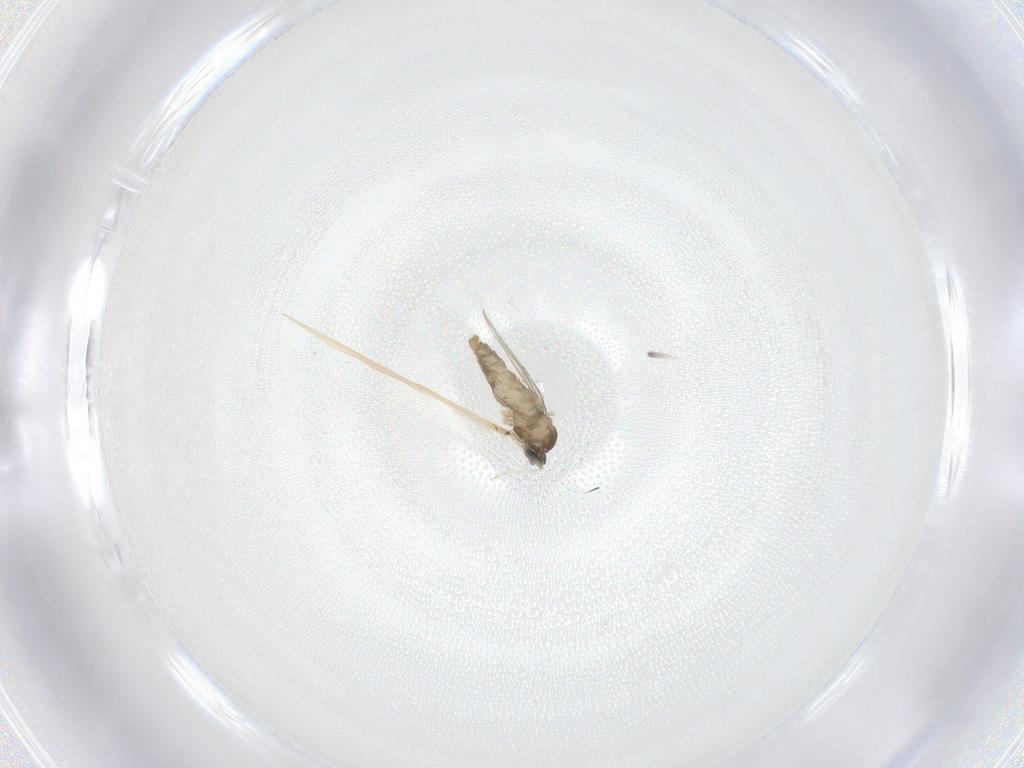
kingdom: Animalia
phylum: Arthropoda
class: Insecta
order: Diptera
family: Cecidomyiidae
